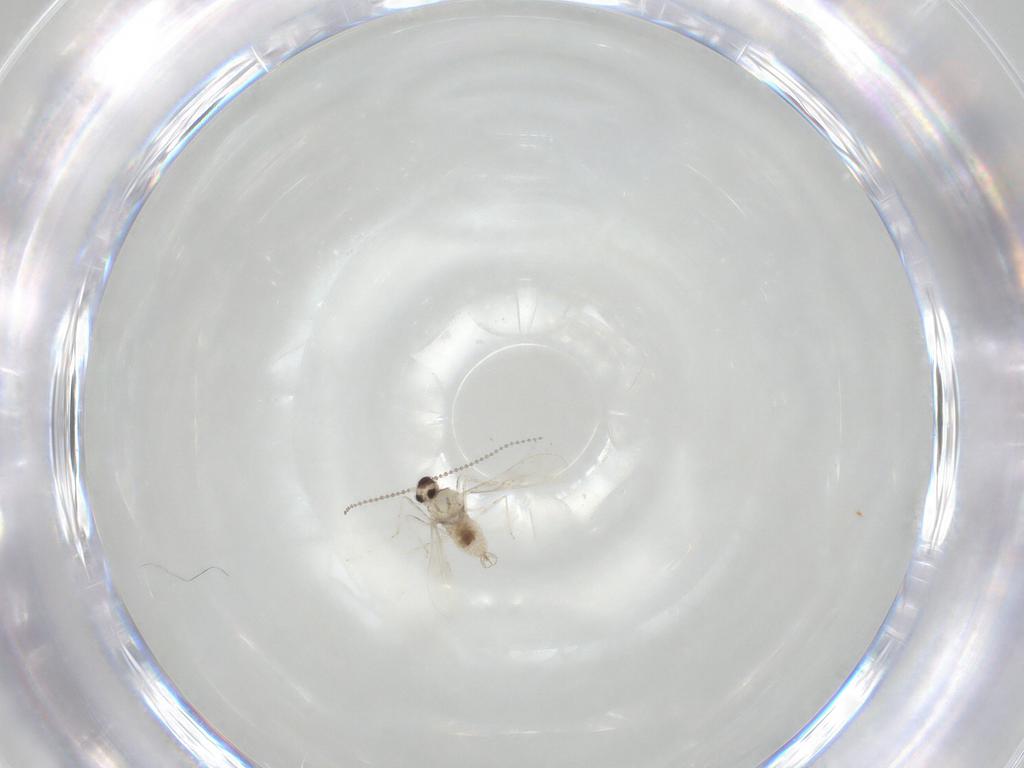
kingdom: Animalia
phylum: Arthropoda
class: Insecta
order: Diptera
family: Cecidomyiidae
